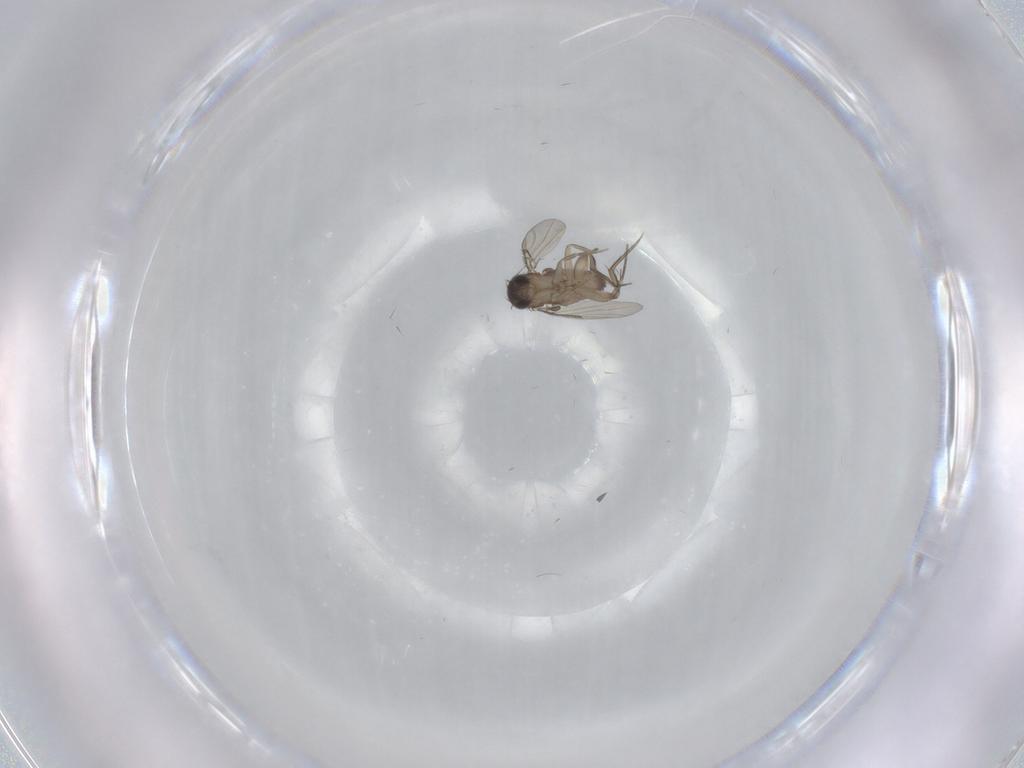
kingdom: Animalia
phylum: Arthropoda
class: Insecta
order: Diptera
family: Phoridae
